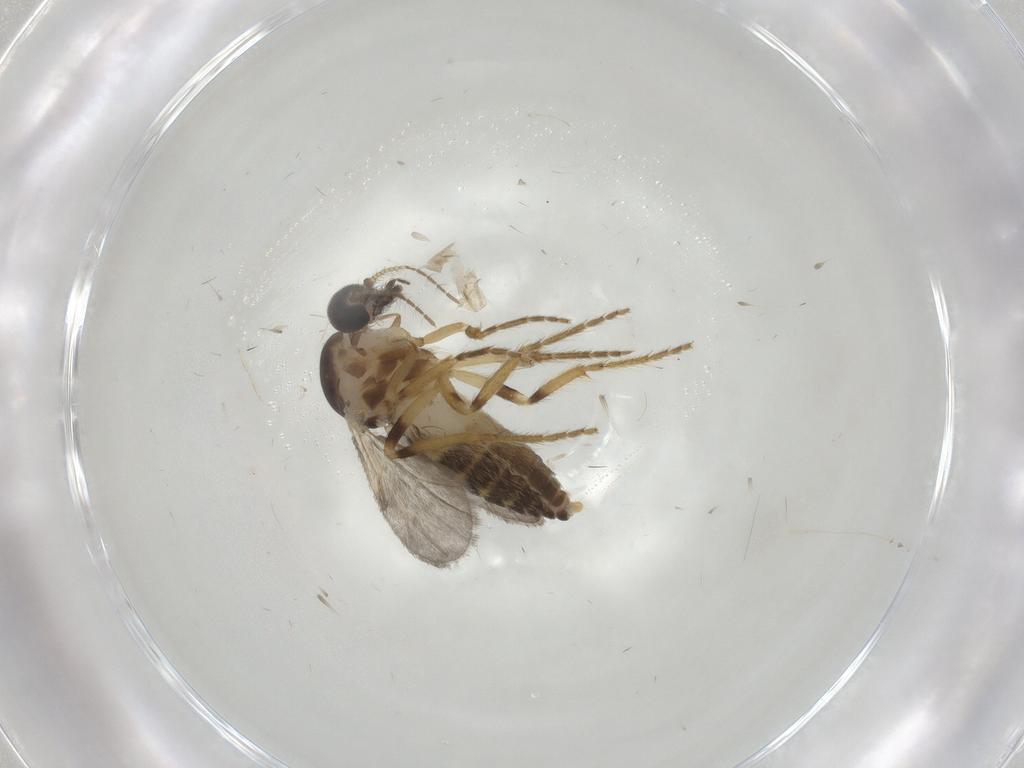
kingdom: Animalia
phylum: Arthropoda
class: Insecta
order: Diptera
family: Ceratopogonidae
